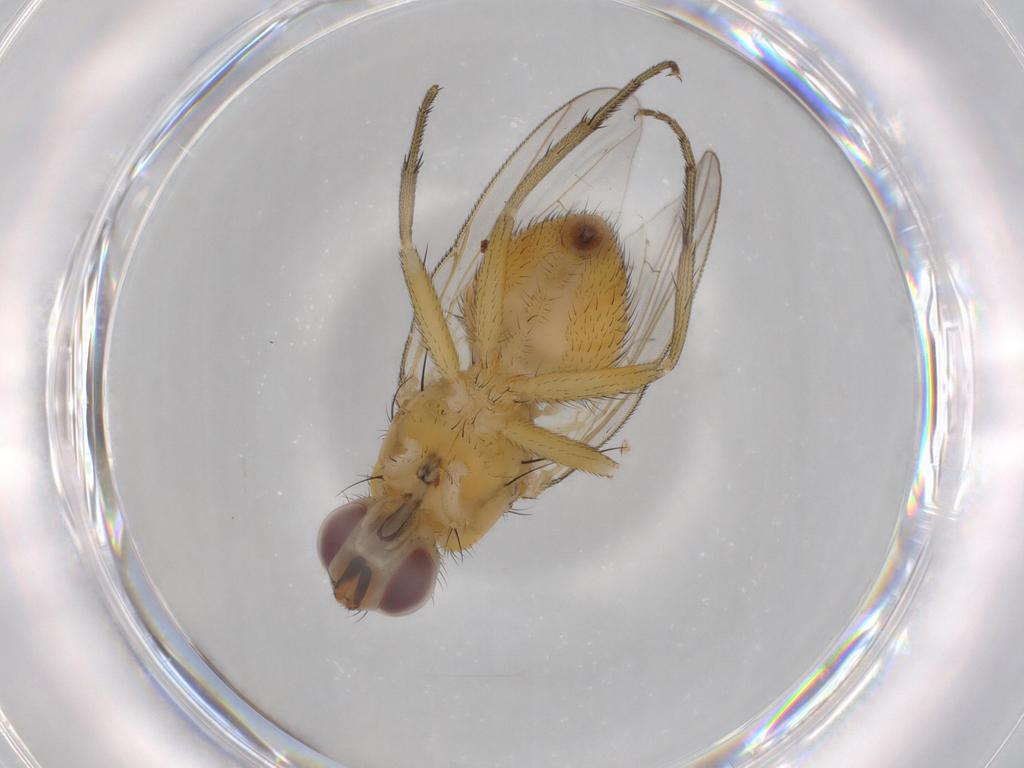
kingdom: Animalia
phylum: Arthropoda
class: Insecta
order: Diptera
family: Muscidae
